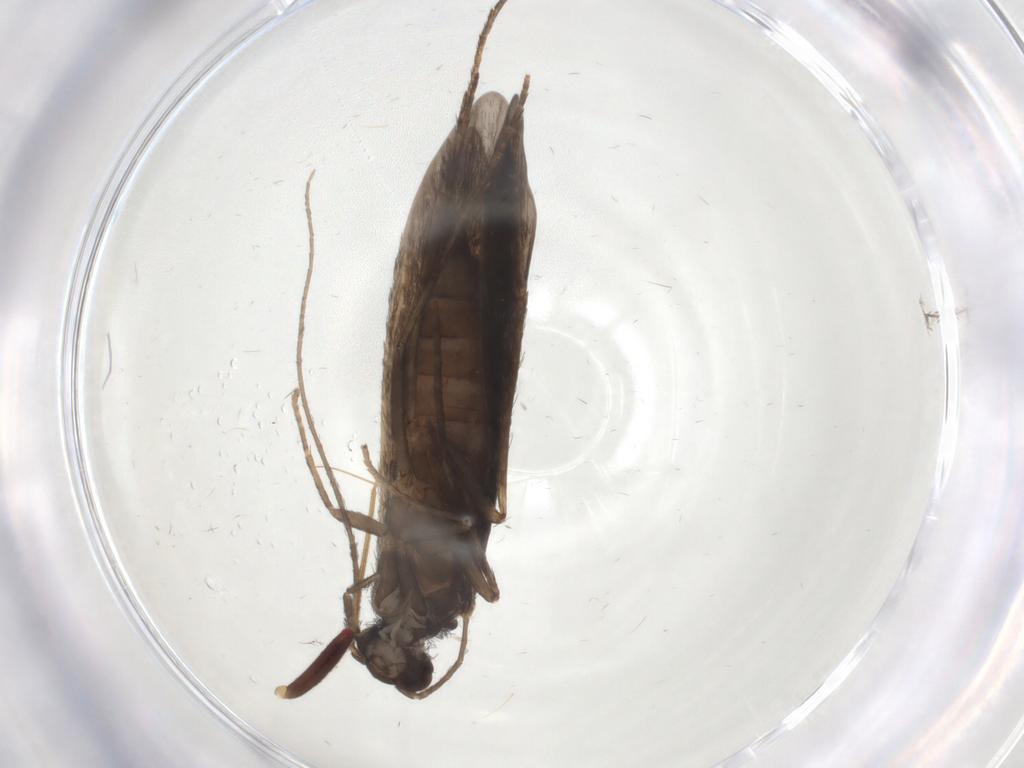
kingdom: Animalia
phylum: Arthropoda
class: Insecta
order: Trichoptera
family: Xiphocentronidae
